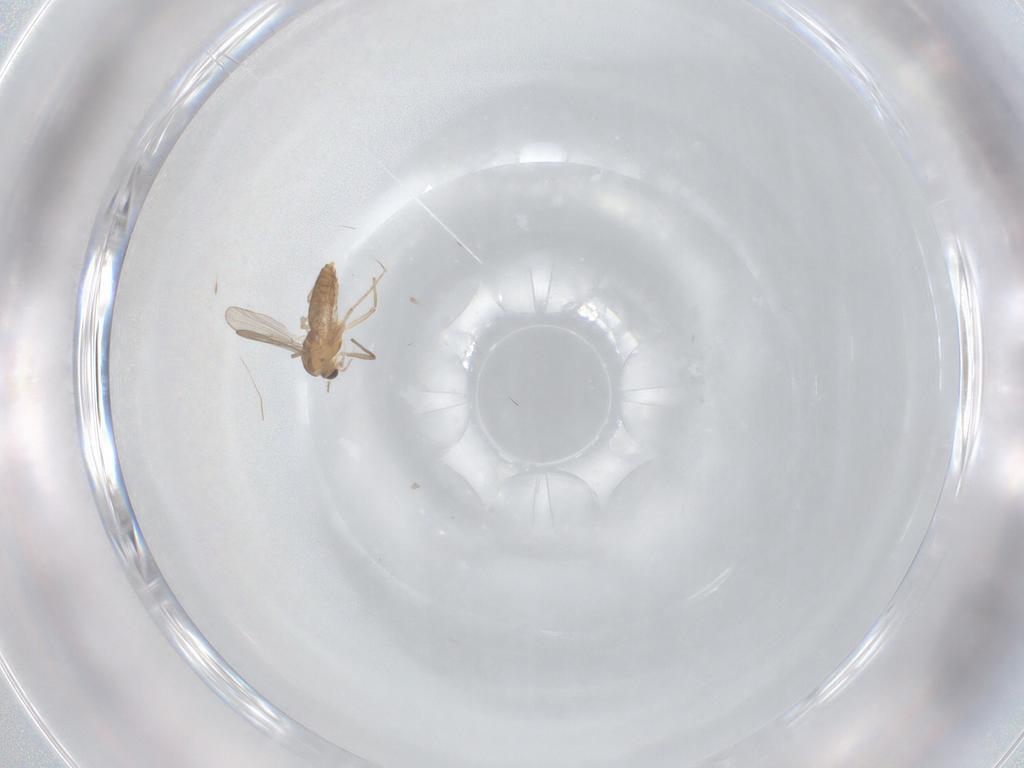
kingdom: Animalia
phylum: Arthropoda
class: Insecta
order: Diptera
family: Chironomidae
